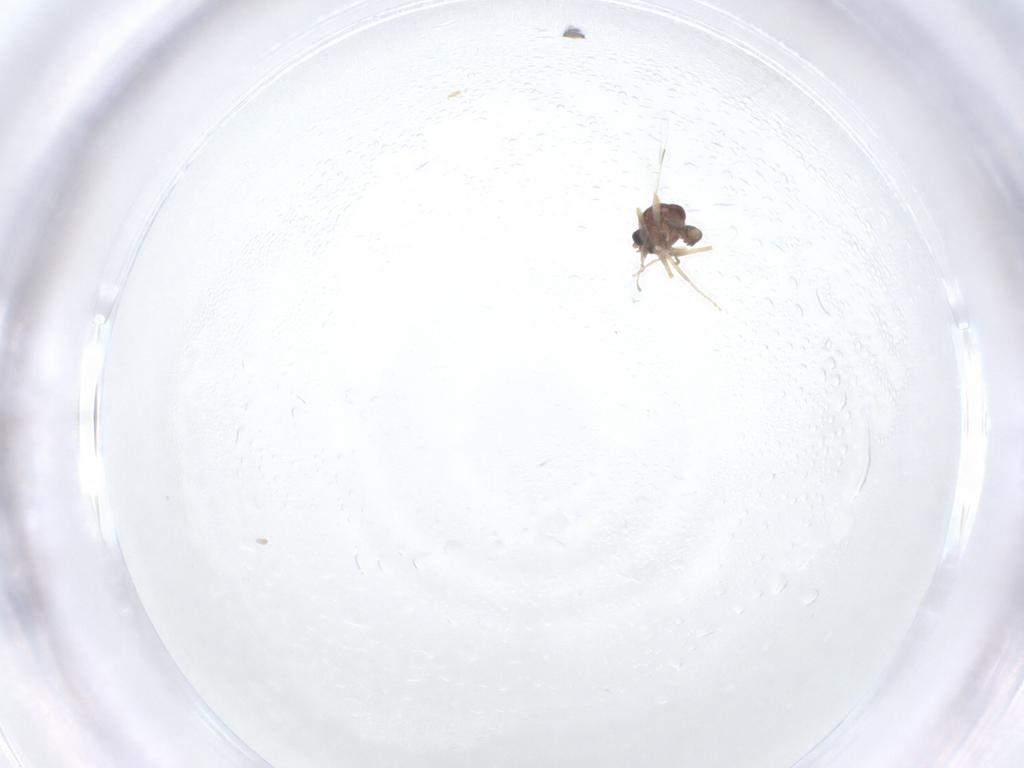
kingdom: Animalia
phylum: Arthropoda
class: Insecta
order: Diptera
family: Ceratopogonidae
